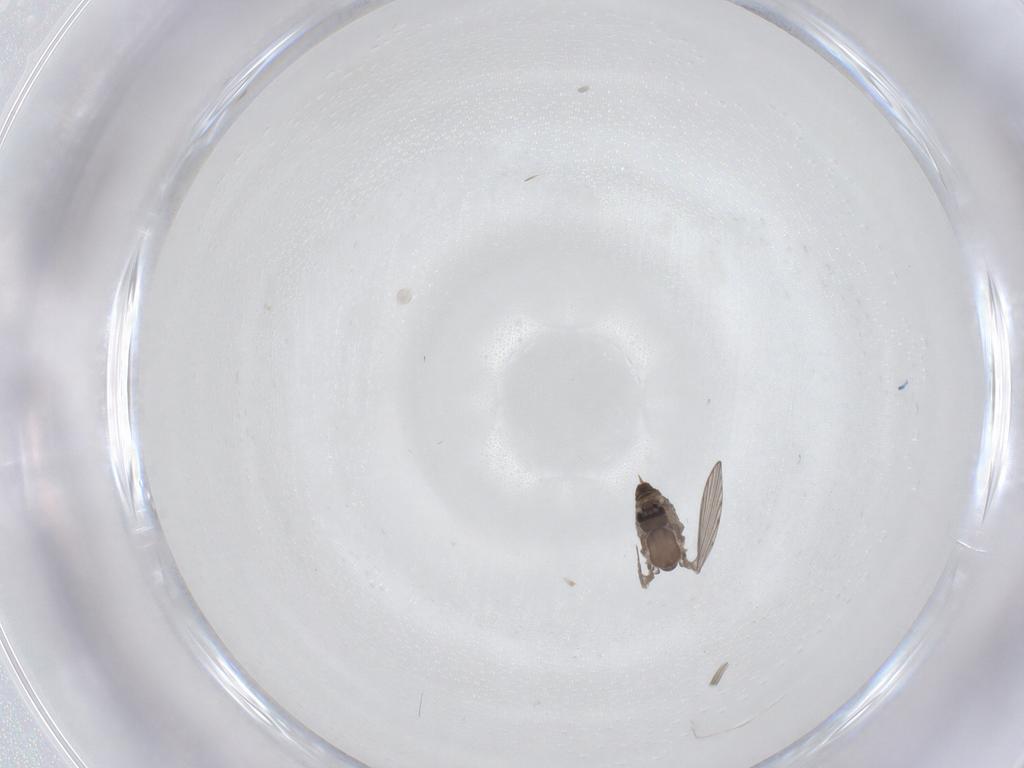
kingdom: Animalia
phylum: Arthropoda
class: Insecta
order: Diptera
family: Psychodidae
